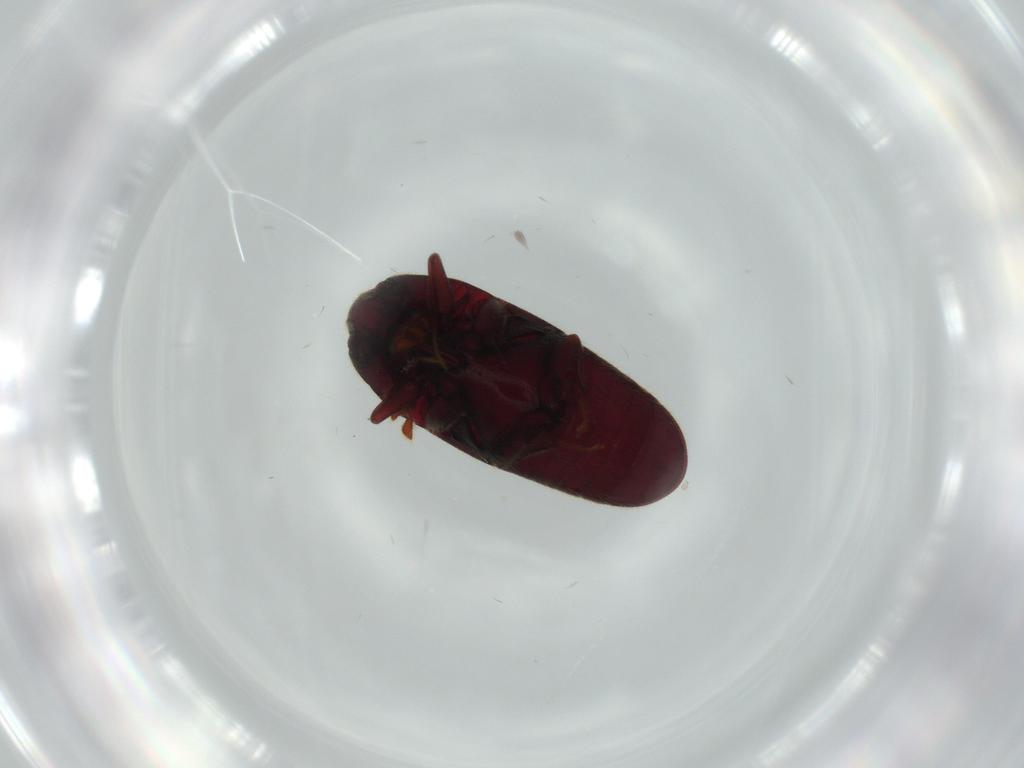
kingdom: Animalia
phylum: Arthropoda
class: Insecta
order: Coleoptera
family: Throscidae
